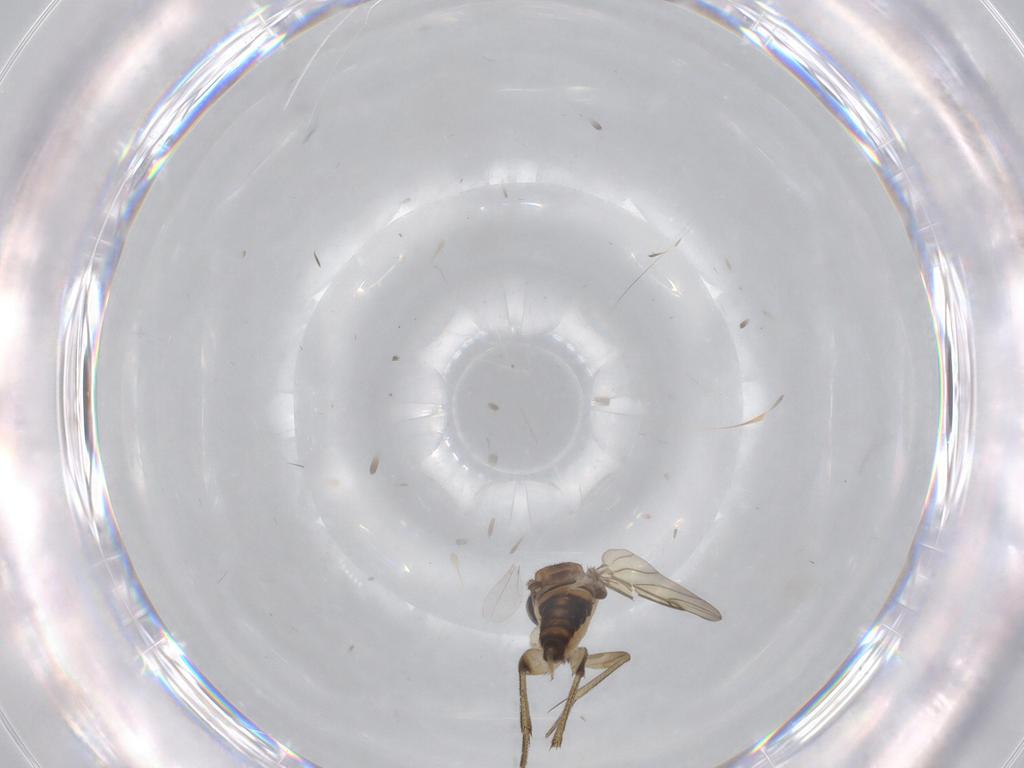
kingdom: Animalia
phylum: Arthropoda
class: Insecta
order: Diptera
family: Phoridae
